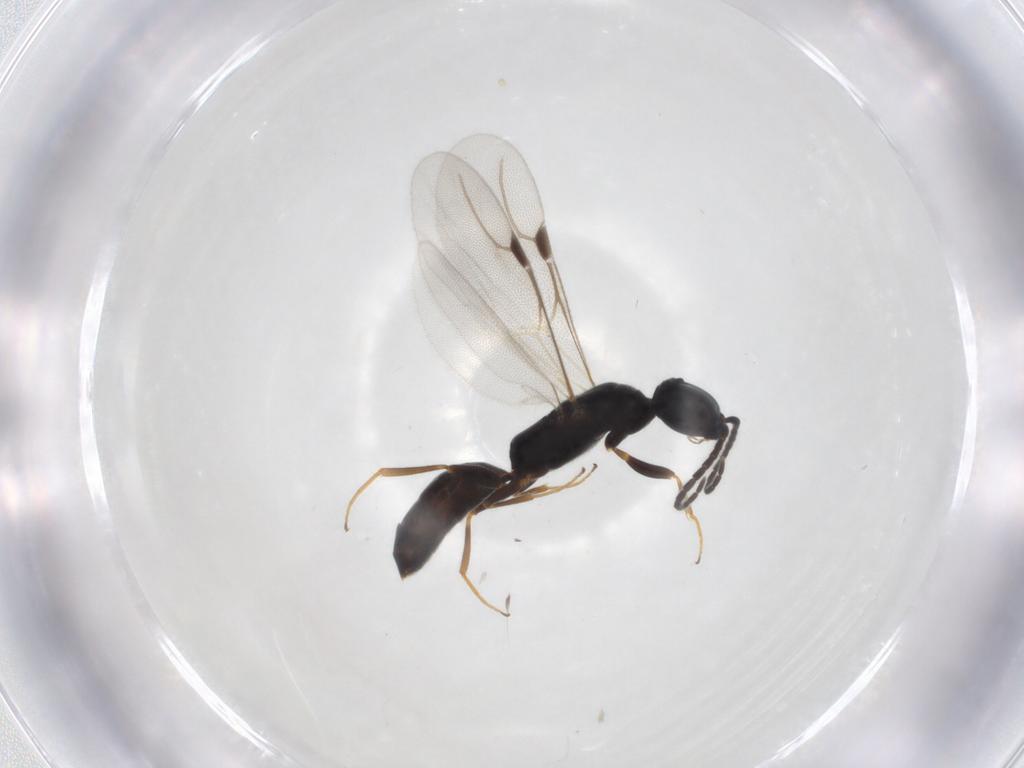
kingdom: Animalia
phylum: Arthropoda
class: Insecta
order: Hymenoptera
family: Bethylidae
